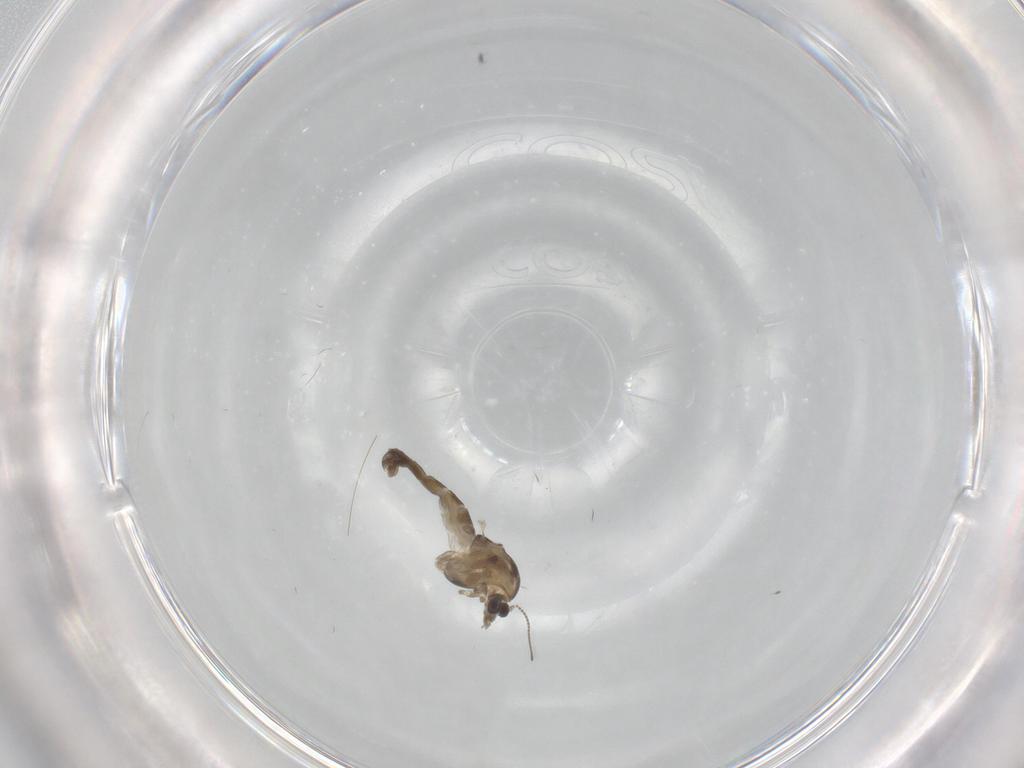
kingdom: Animalia
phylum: Arthropoda
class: Insecta
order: Diptera
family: Chironomidae
